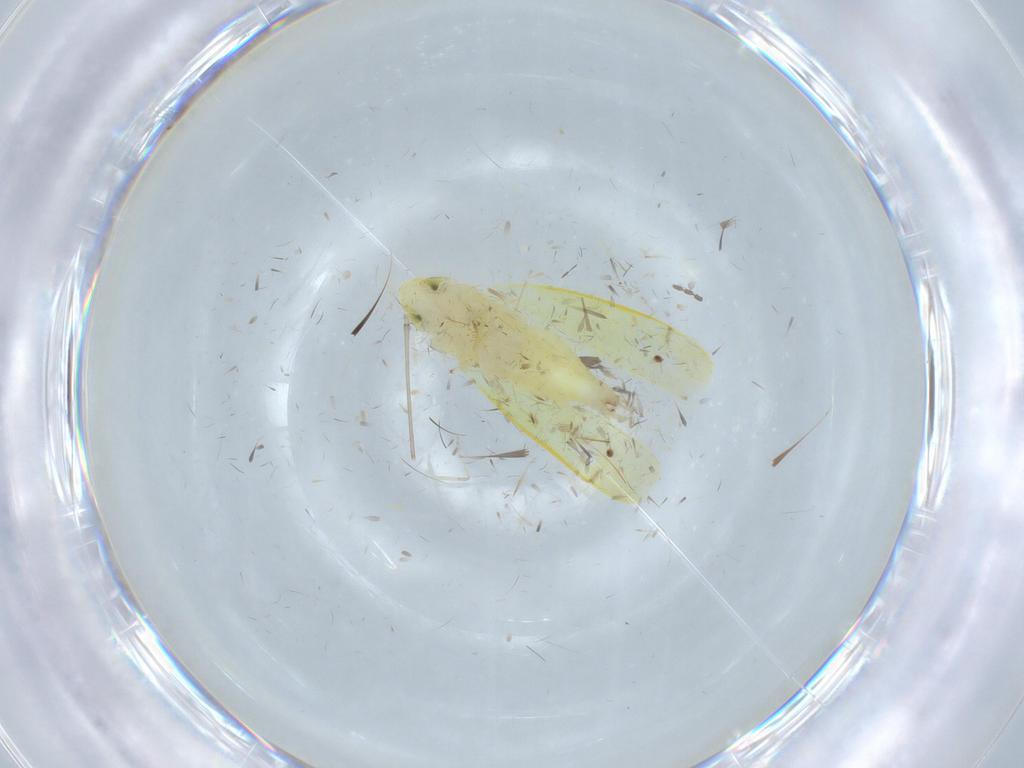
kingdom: Animalia
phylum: Arthropoda
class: Insecta
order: Hemiptera
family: Cicadellidae
